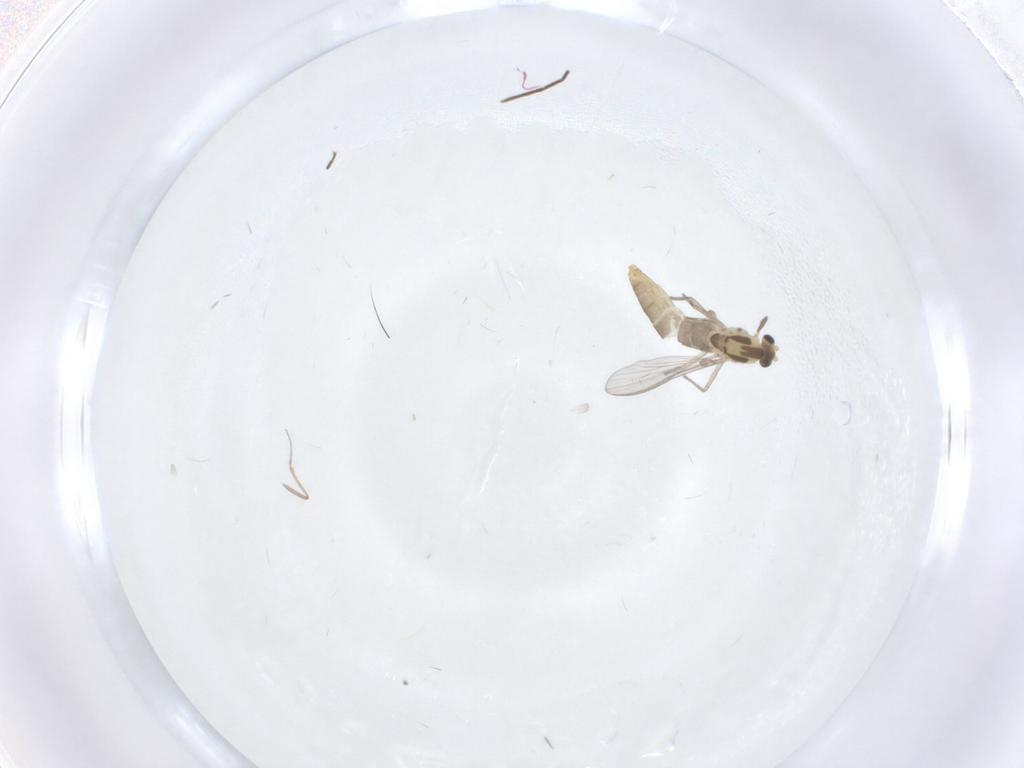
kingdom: Animalia
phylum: Arthropoda
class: Insecta
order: Diptera
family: Chironomidae
